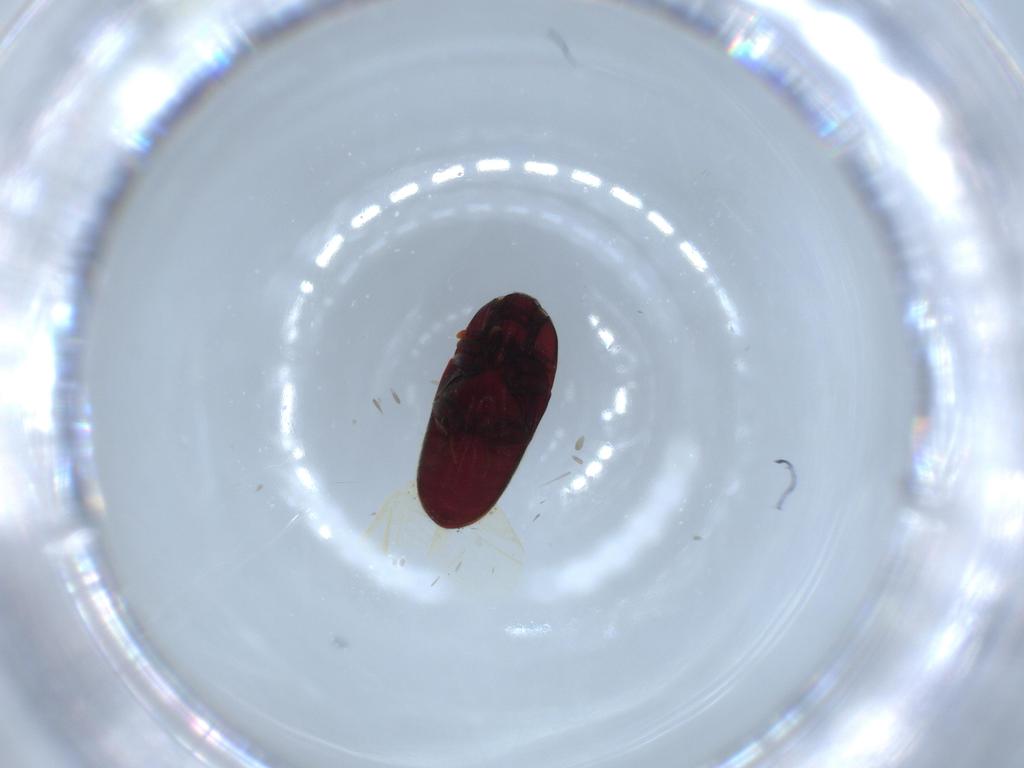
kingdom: Animalia
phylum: Arthropoda
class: Insecta
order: Coleoptera
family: Throscidae
